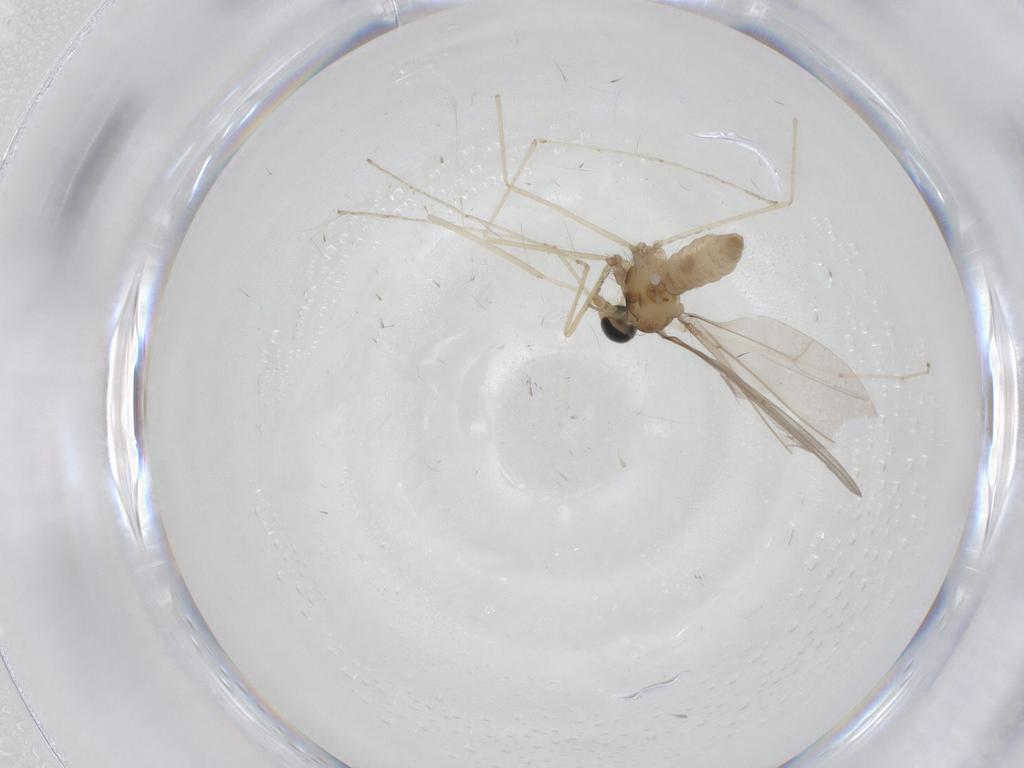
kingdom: Animalia
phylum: Arthropoda
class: Insecta
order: Diptera
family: Cecidomyiidae
